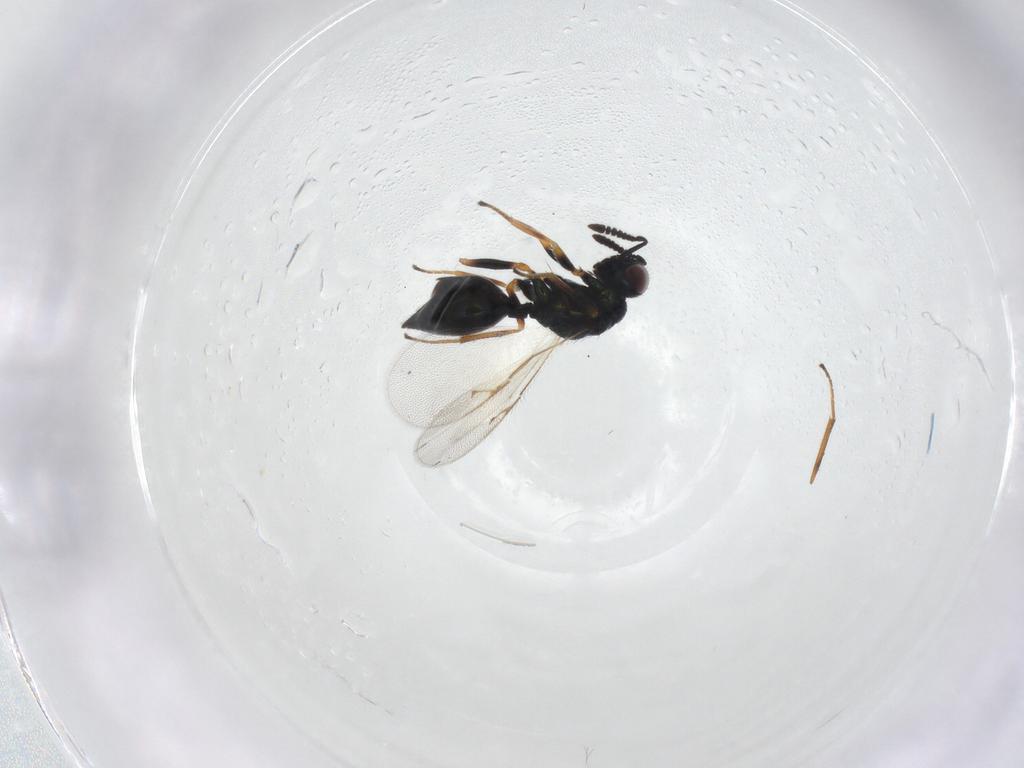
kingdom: Animalia
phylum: Arthropoda
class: Insecta
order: Hymenoptera
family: Chalcidoidea_incertae_sedis
